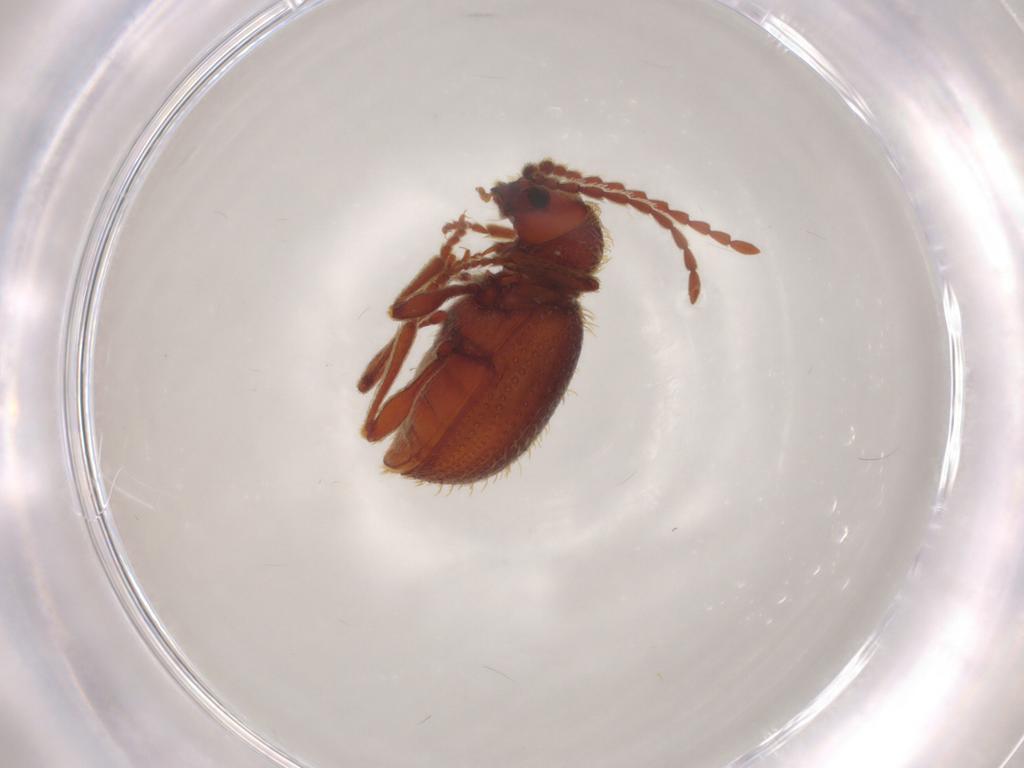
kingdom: Animalia
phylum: Arthropoda
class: Insecta
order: Coleoptera
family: Ptinidae
